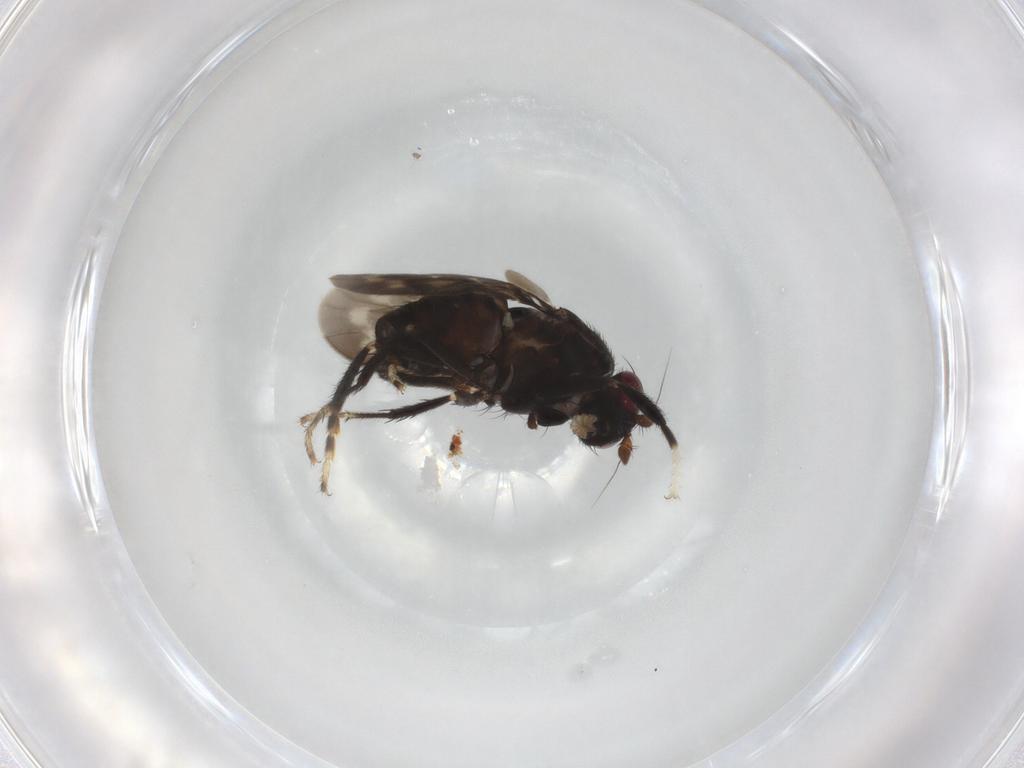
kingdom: Animalia
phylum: Arthropoda
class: Insecta
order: Diptera
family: Sphaeroceridae
